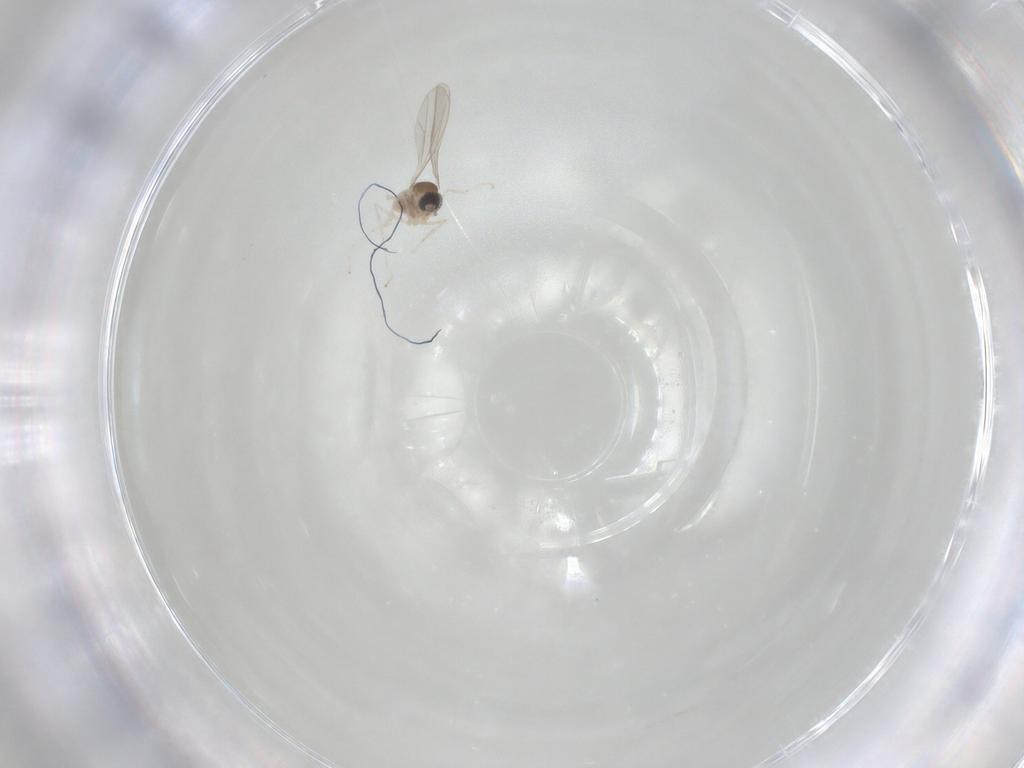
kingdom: Animalia
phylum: Arthropoda
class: Insecta
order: Diptera
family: Cecidomyiidae
